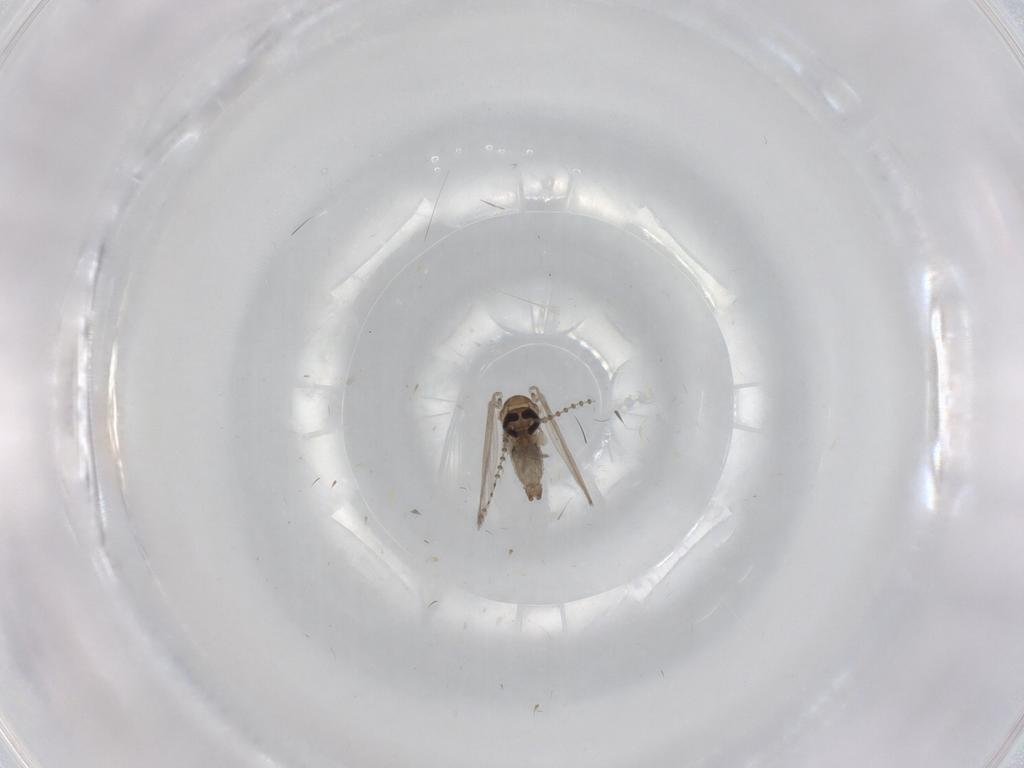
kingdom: Animalia
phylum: Arthropoda
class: Insecta
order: Diptera
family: Psychodidae
